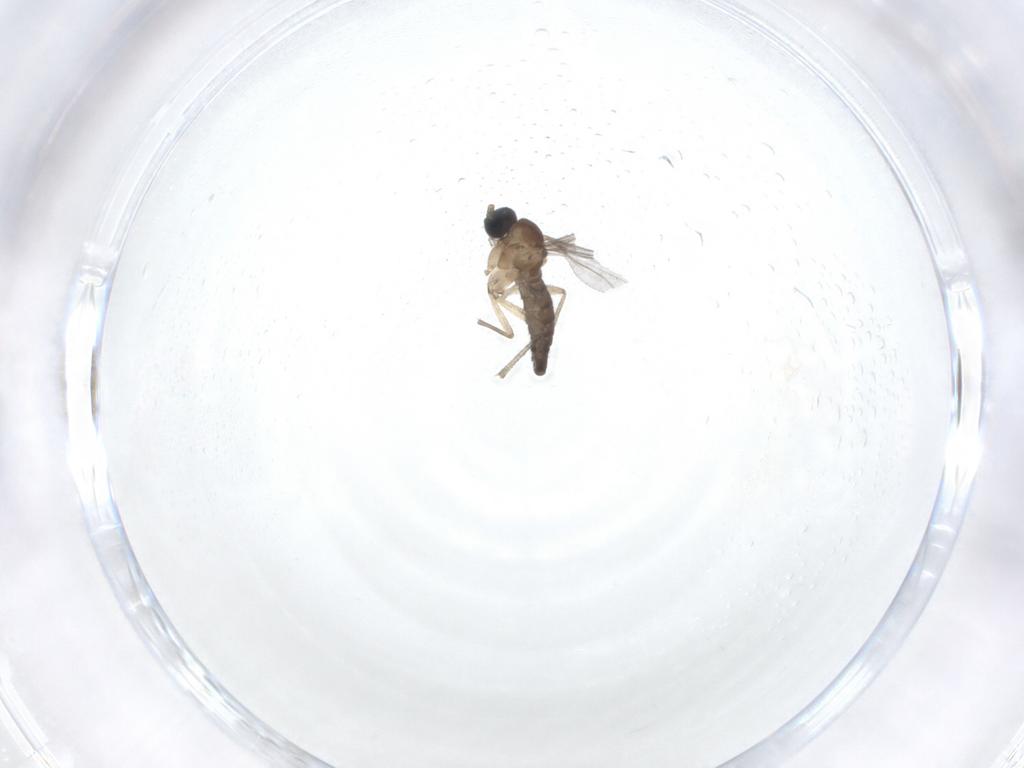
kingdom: Animalia
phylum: Arthropoda
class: Insecta
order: Diptera
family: Sciaridae
